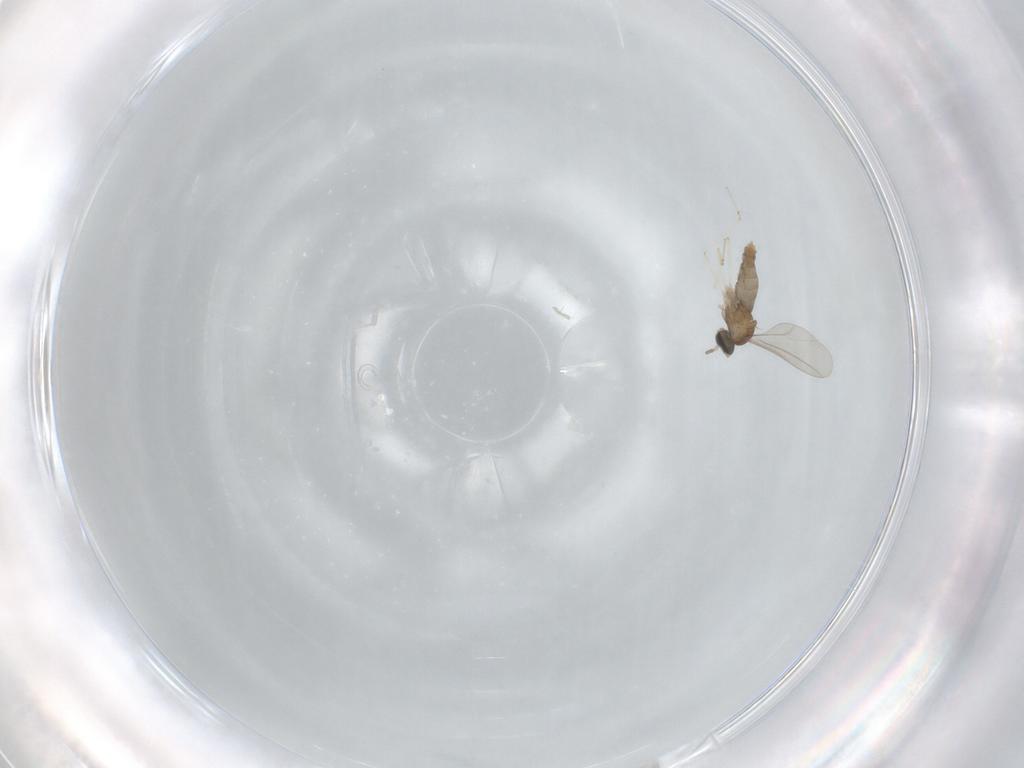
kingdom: Animalia
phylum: Arthropoda
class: Insecta
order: Diptera
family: Cecidomyiidae
